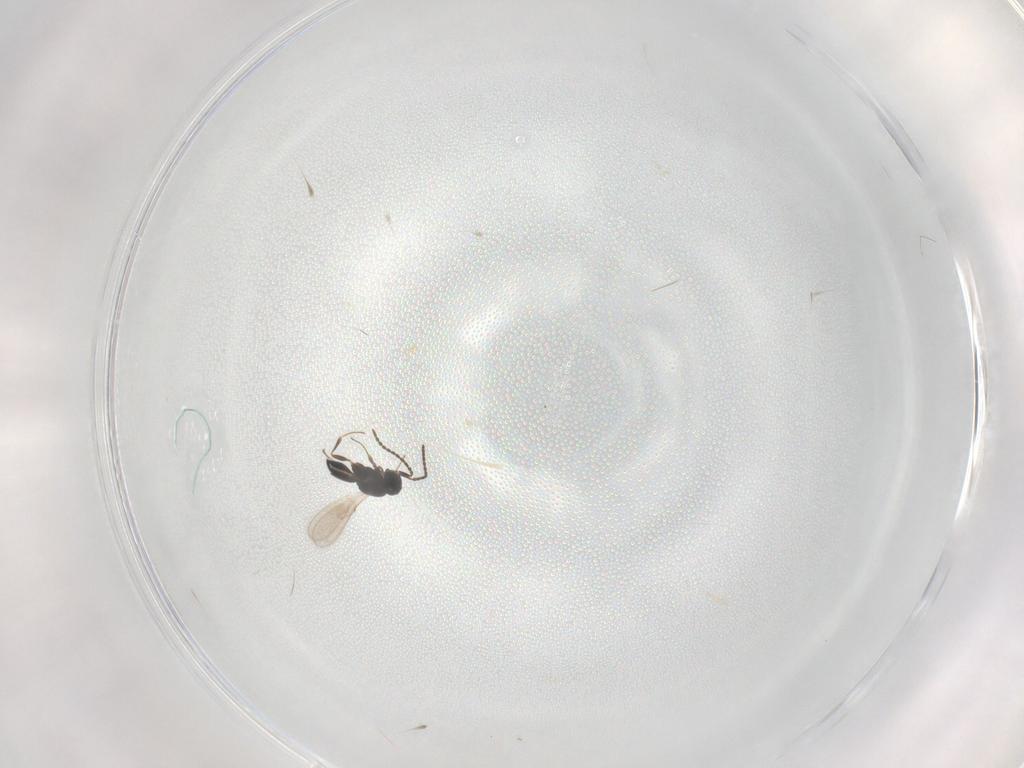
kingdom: Animalia
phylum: Arthropoda
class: Insecta
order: Hymenoptera
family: Scelionidae
